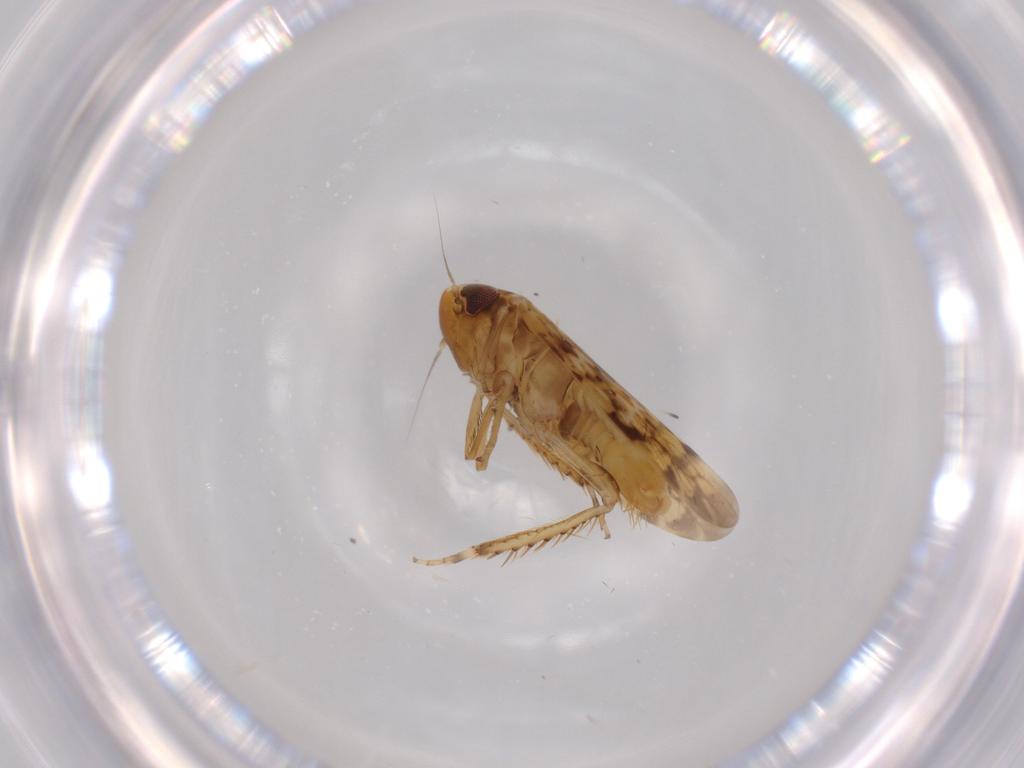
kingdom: Animalia
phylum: Arthropoda
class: Insecta
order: Hemiptera
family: Cicadellidae
